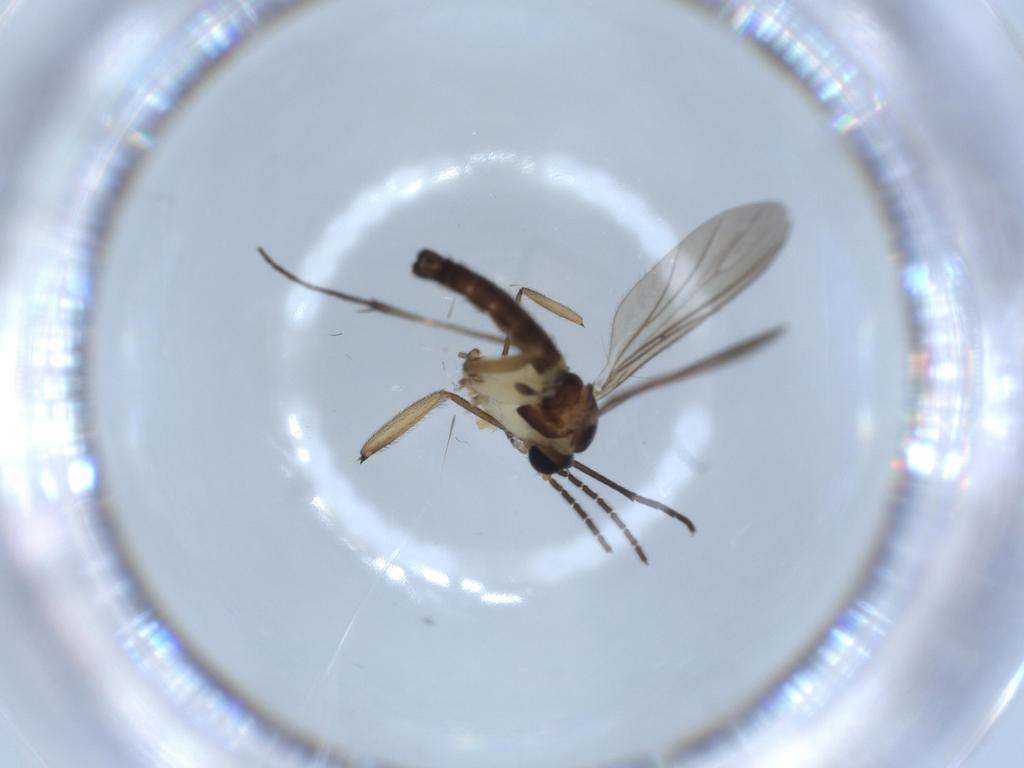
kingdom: Animalia
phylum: Arthropoda
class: Insecta
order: Diptera
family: Sciaridae
